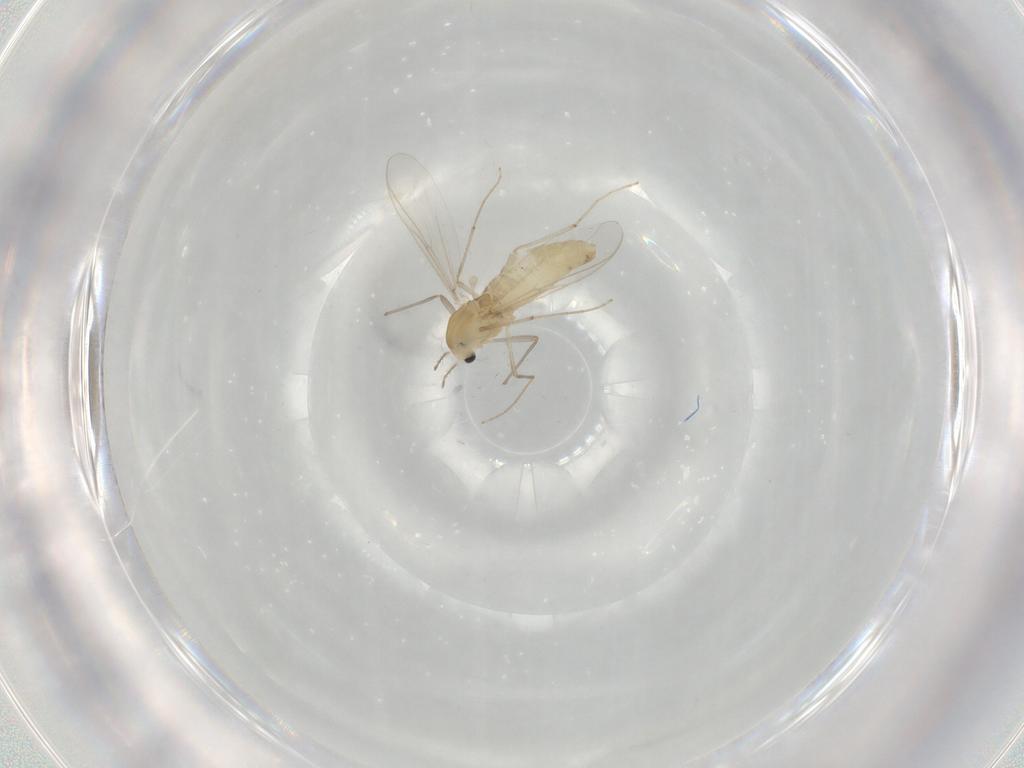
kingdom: Animalia
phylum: Arthropoda
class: Insecta
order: Diptera
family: Chironomidae
